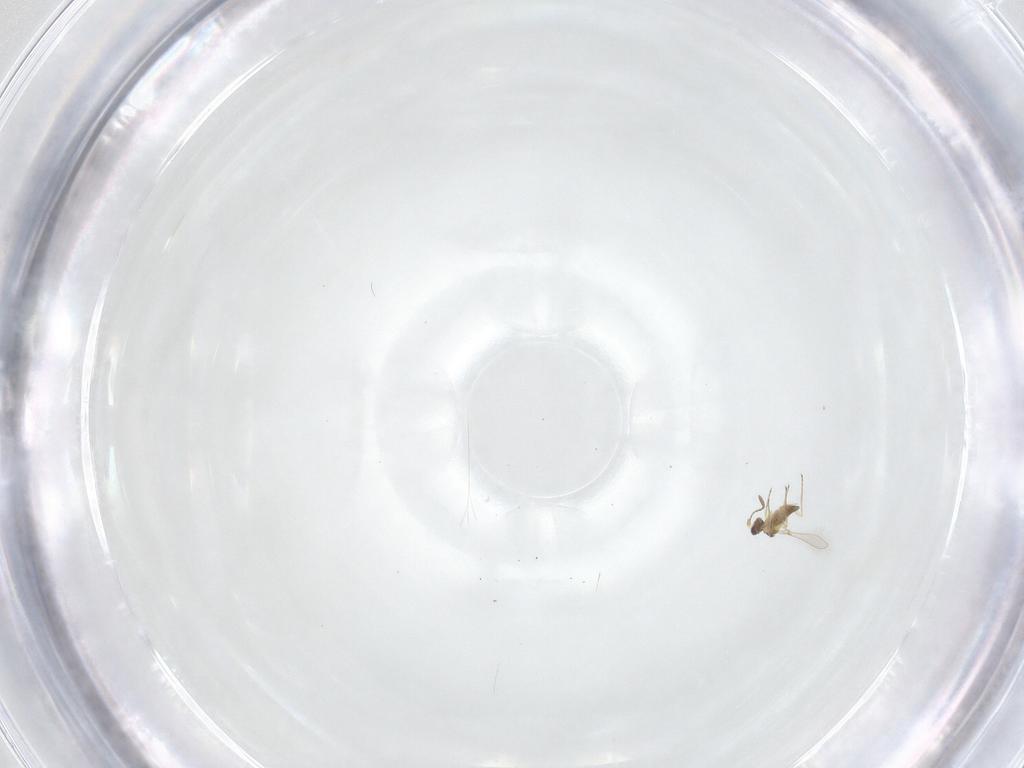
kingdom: Animalia
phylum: Arthropoda
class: Insecta
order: Hymenoptera
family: Mymaridae
